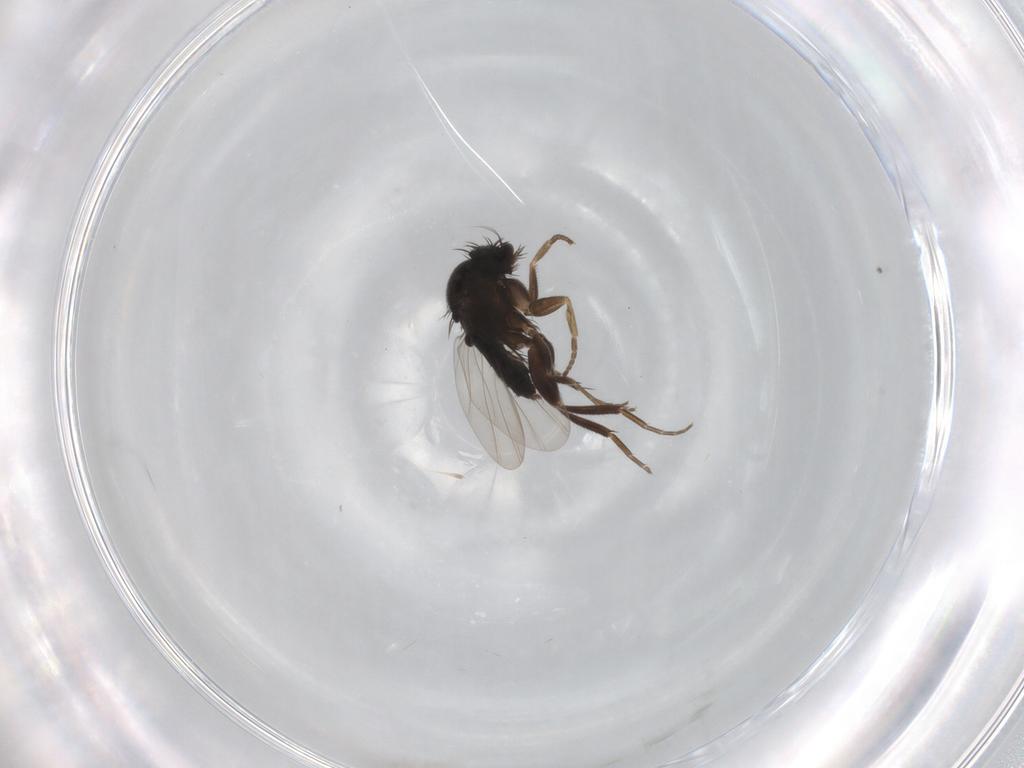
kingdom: Animalia
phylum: Arthropoda
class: Insecta
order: Diptera
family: Phoridae
